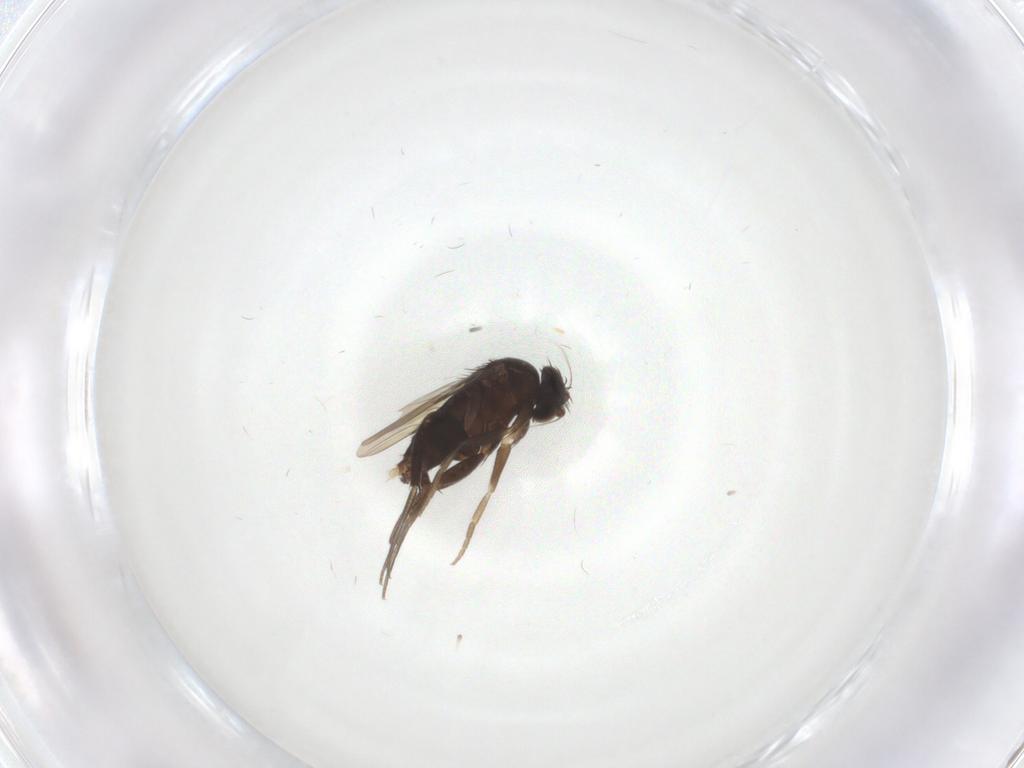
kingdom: Animalia
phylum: Arthropoda
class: Insecta
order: Diptera
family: Phoridae
